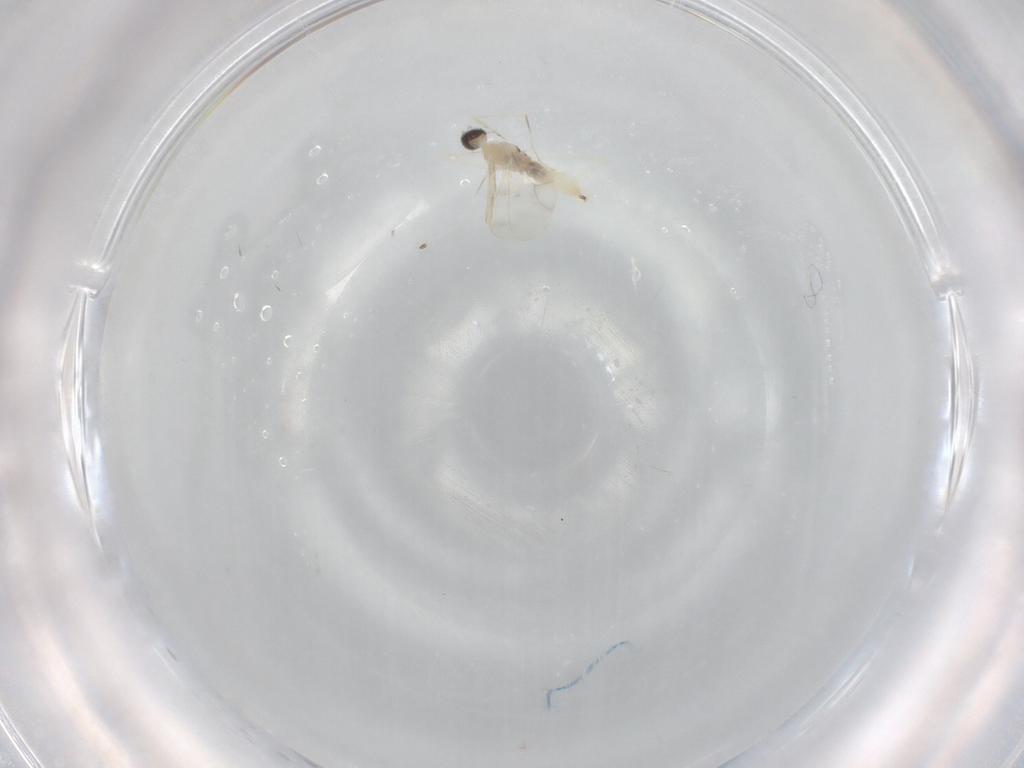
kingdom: Animalia
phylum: Arthropoda
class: Insecta
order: Diptera
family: Cecidomyiidae
